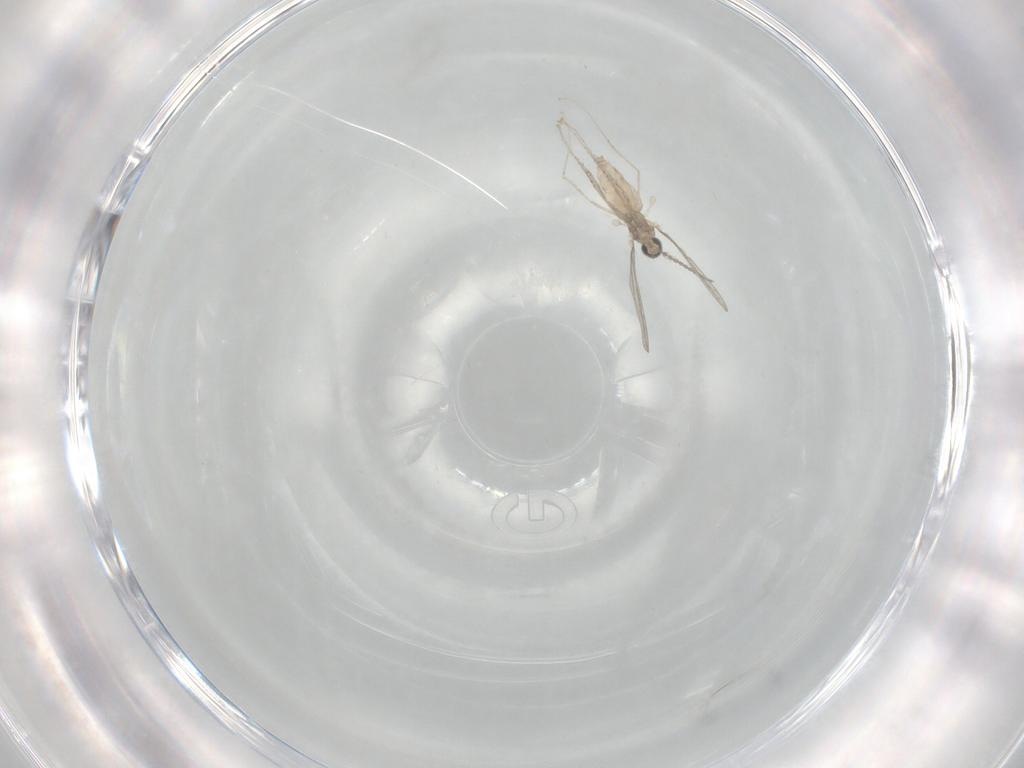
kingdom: Animalia
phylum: Arthropoda
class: Insecta
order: Diptera
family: Cecidomyiidae
